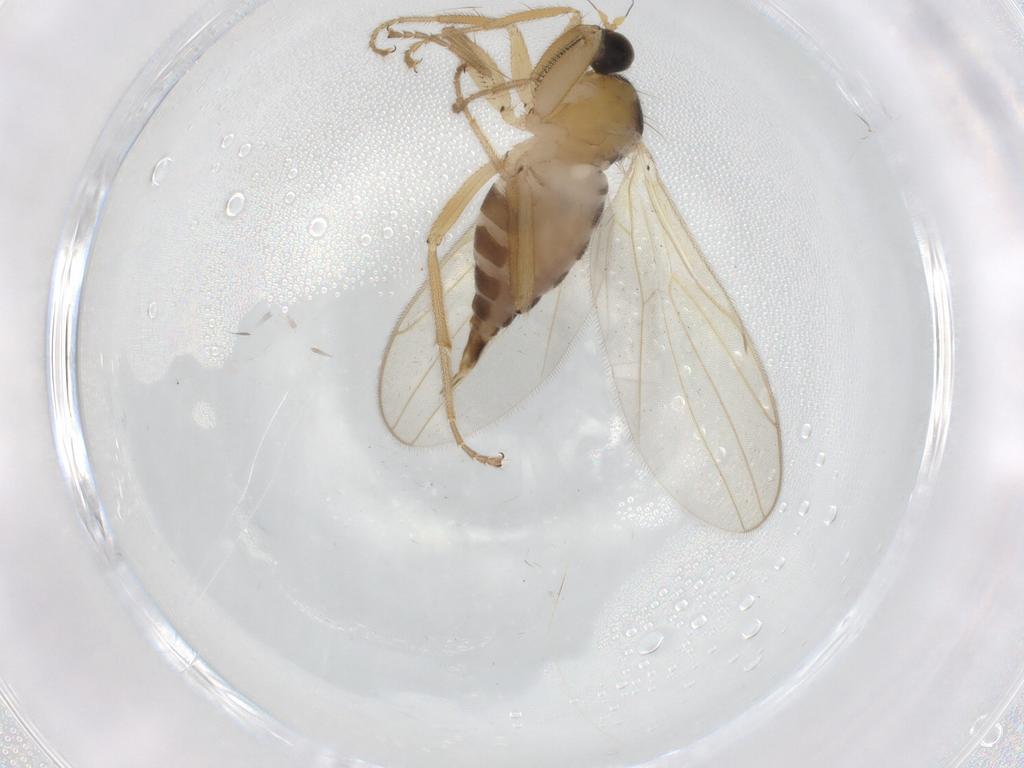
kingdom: Animalia
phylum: Arthropoda
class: Insecta
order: Diptera
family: Hybotidae
